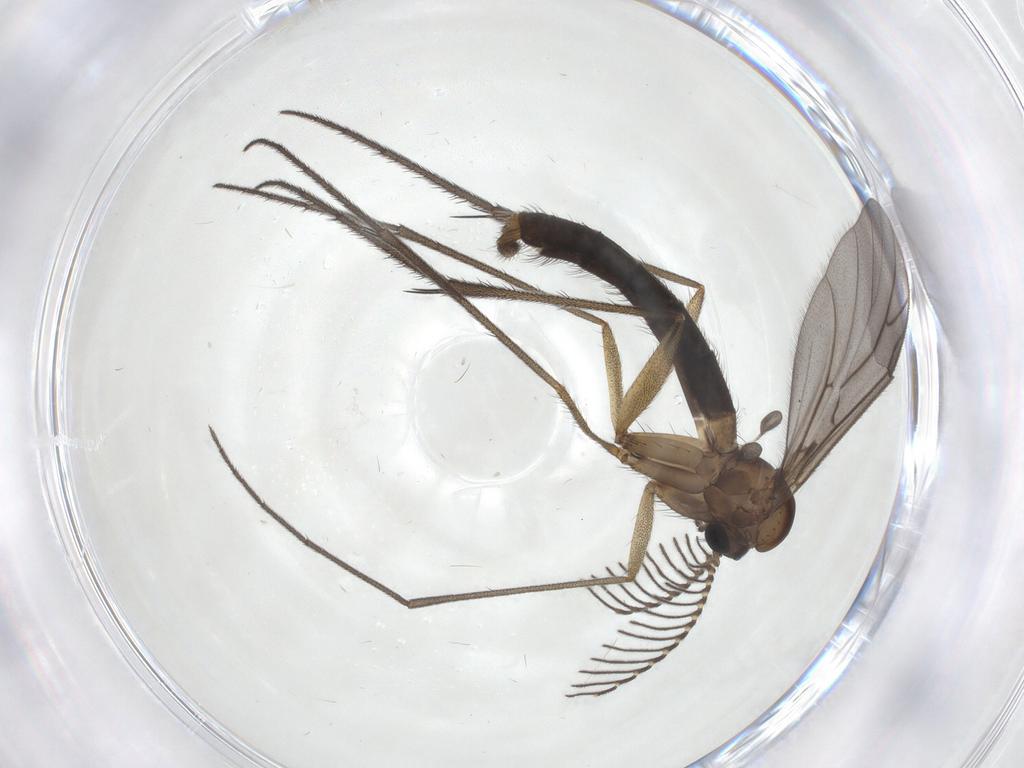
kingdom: Animalia
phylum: Arthropoda
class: Insecta
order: Diptera
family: Ditomyiidae
